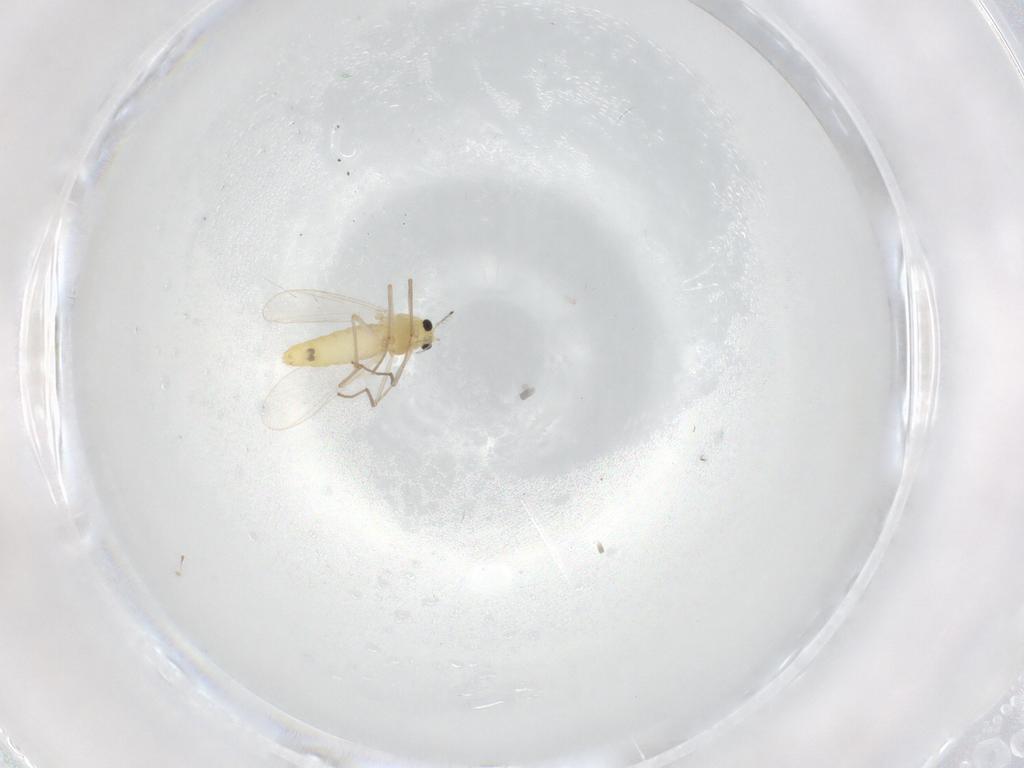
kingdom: Animalia
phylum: Arthropoda
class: Insecta
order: Diptera
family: Chironomidae
